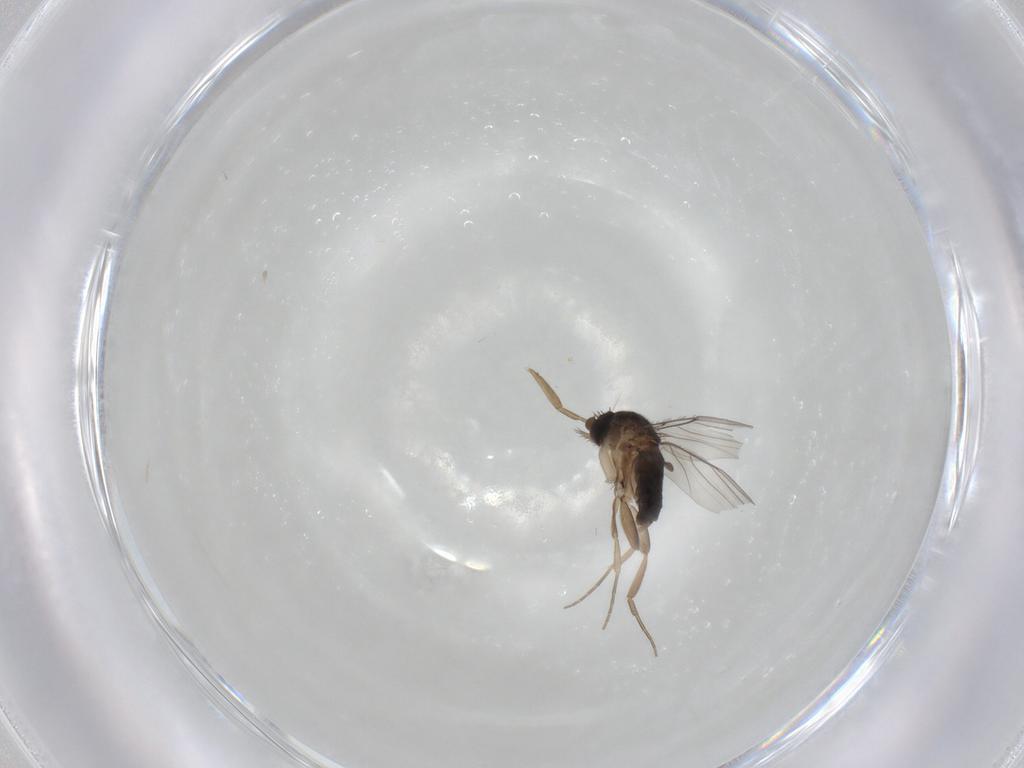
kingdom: Animalia
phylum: Arthropoda
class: Insecta
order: Diptera
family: Phoridae
